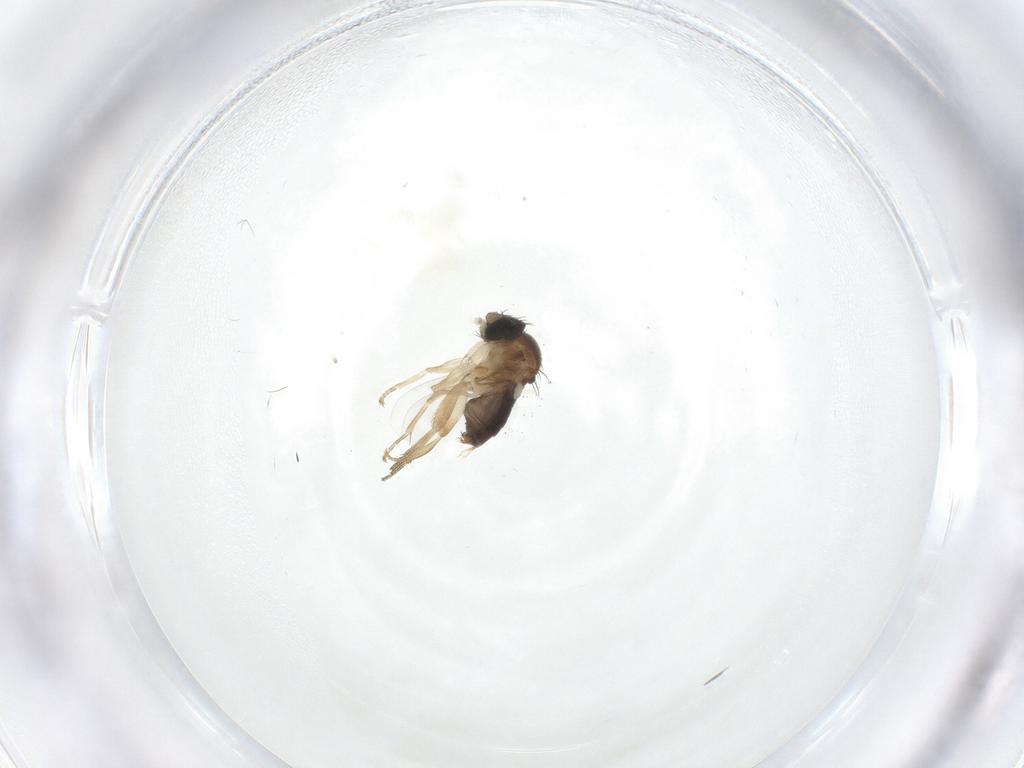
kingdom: Animalia
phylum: Arthropoda
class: Insecta
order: Diptera
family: Phoridae
